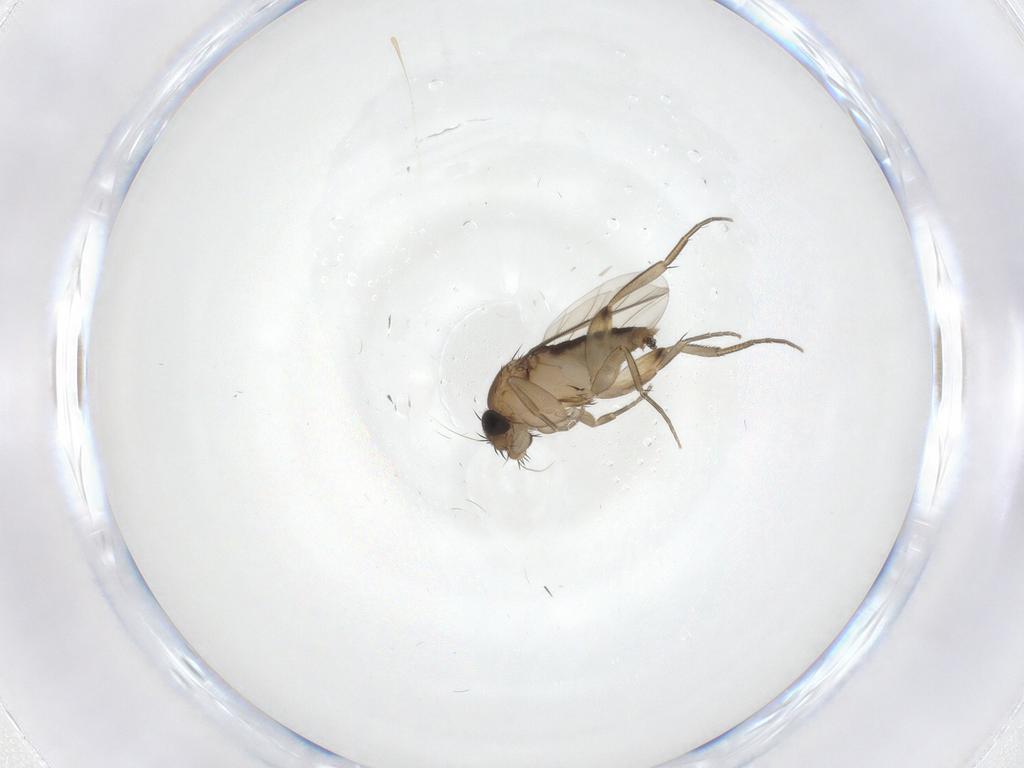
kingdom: Animalia
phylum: Arthropoda
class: Insecta
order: Diptera
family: Phoridae
